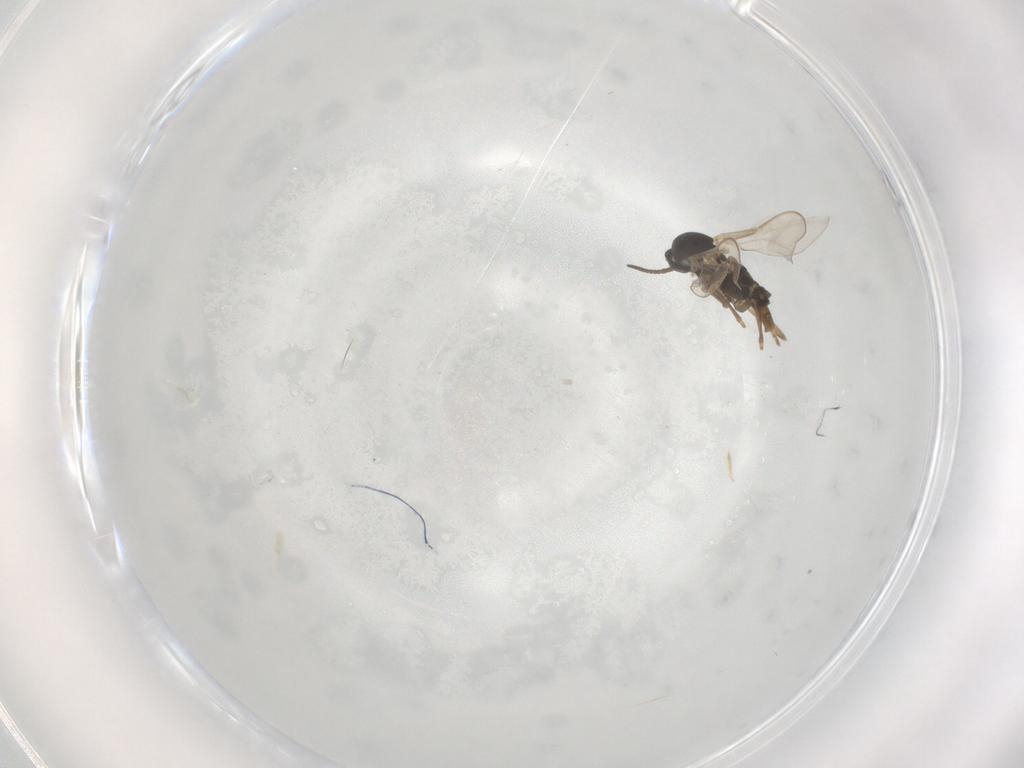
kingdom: Animalia
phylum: Arthropoda
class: Insecta
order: Diptera
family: Cecidomyiidae
